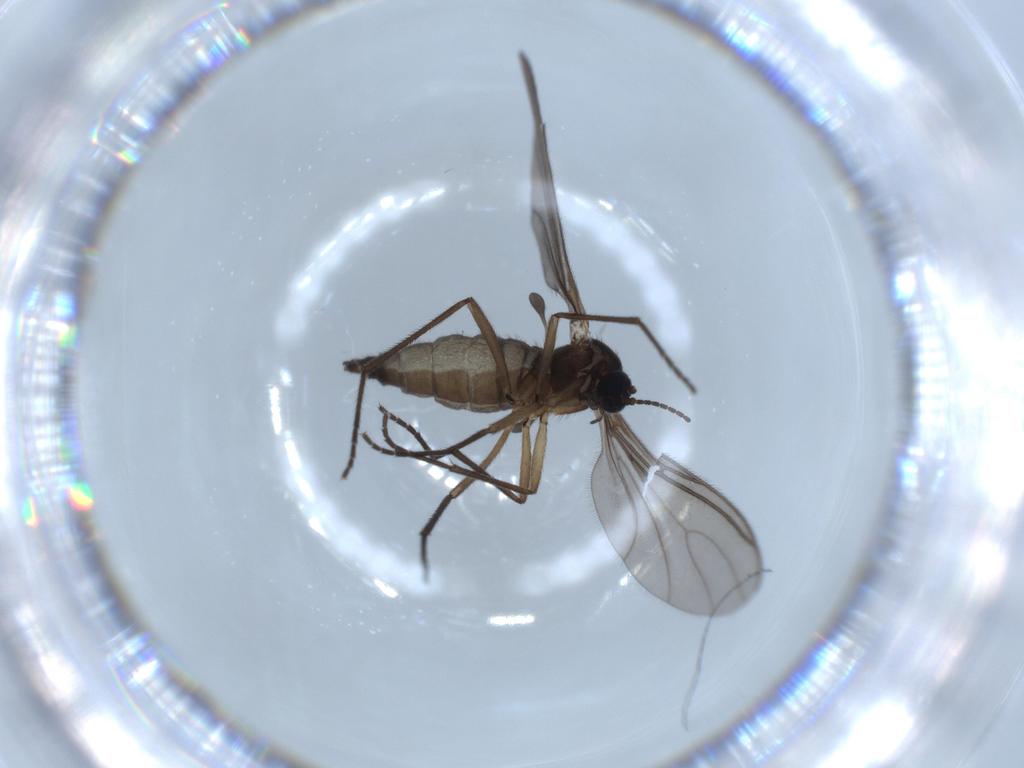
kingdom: Animalia
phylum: Arthropoda
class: Insecta
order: Diptera
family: Sciaridae
